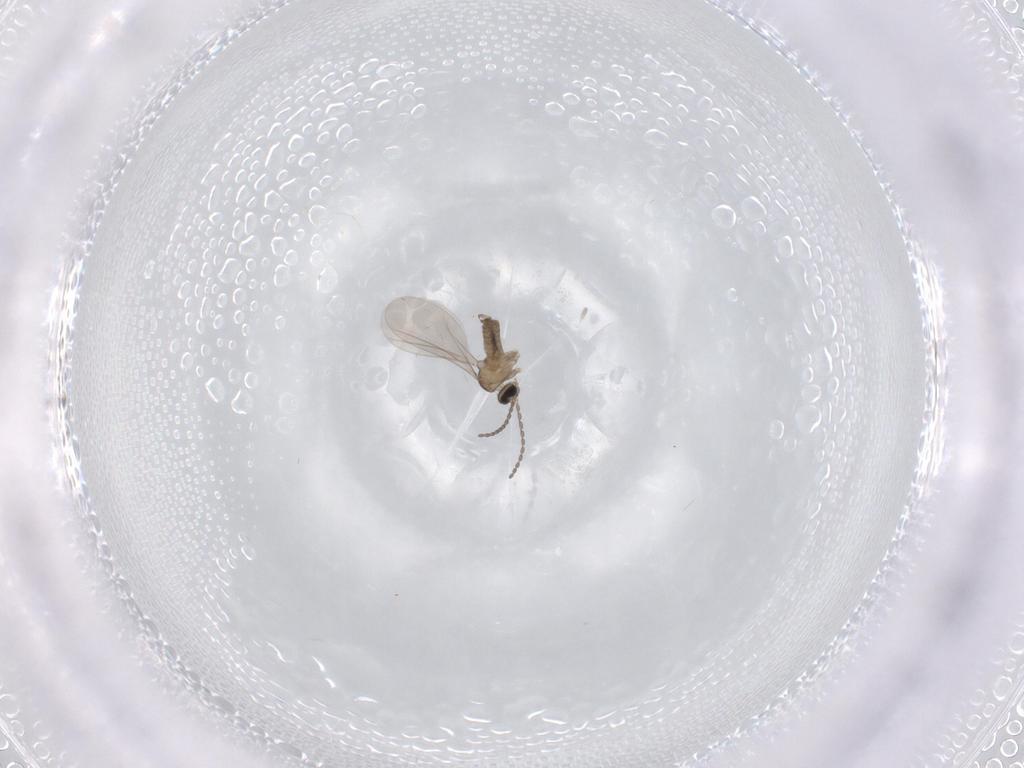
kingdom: Animalia
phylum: Arthropoda
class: Insecta
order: Diptera
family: Cecidomyiidae
